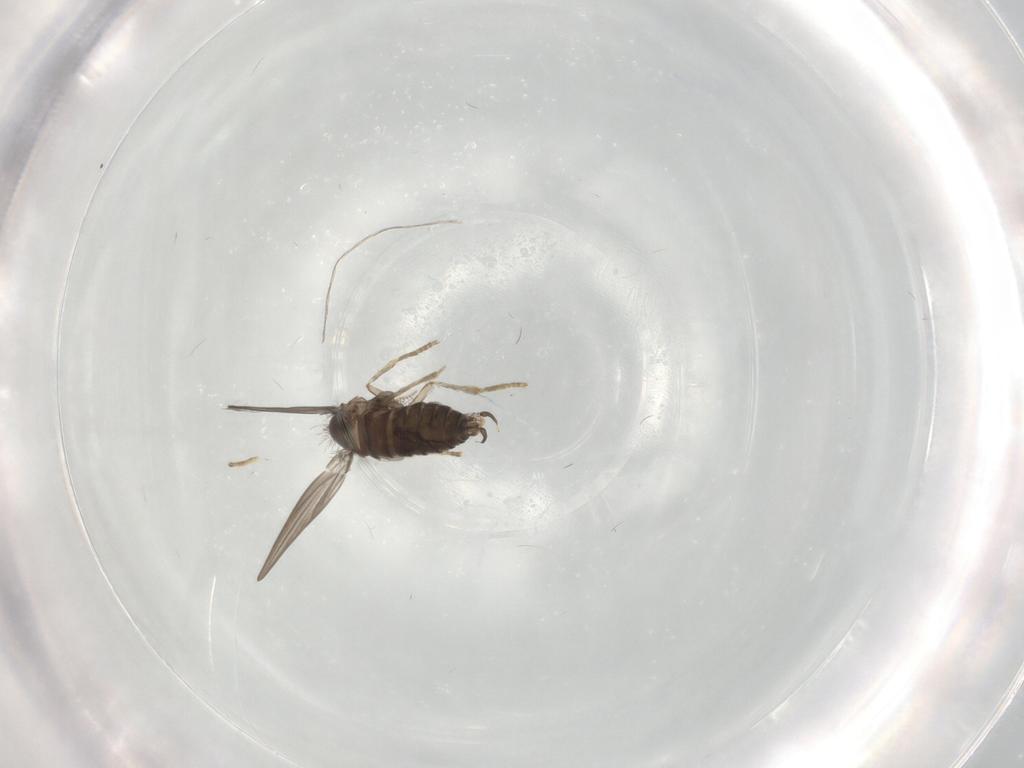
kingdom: Animalia
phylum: Arthropoda
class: Insecta
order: Diptera
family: Psychodidae
